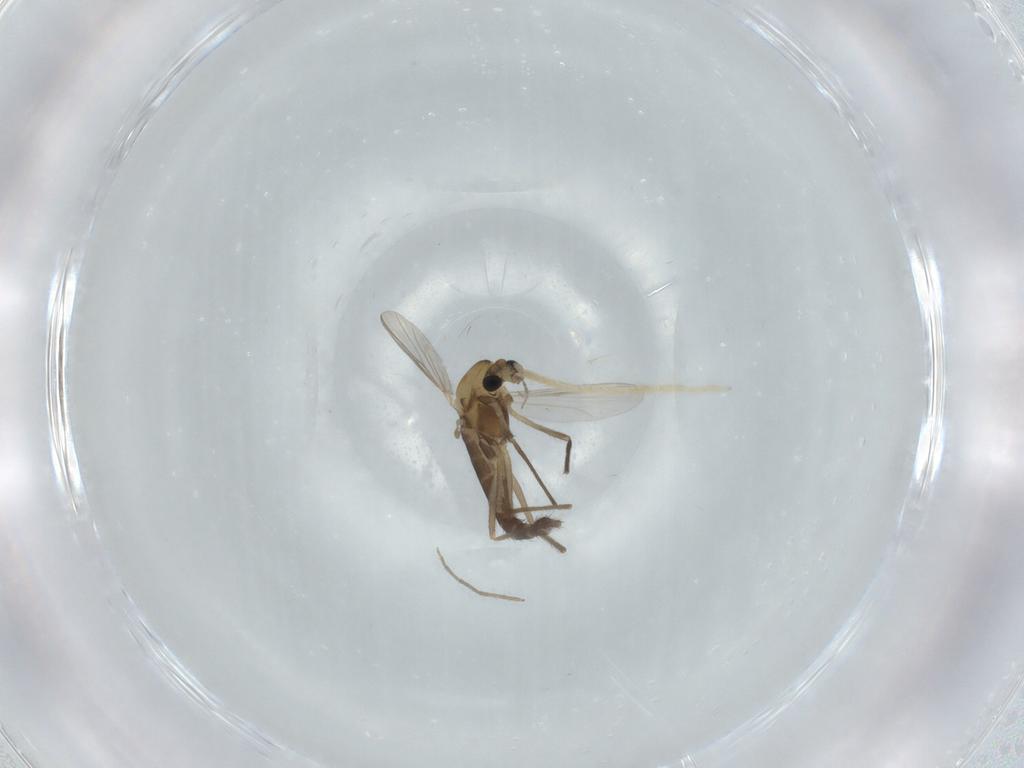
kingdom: Animalia
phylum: Arthropoda
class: Insecta
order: Diptera
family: Chironomidae
